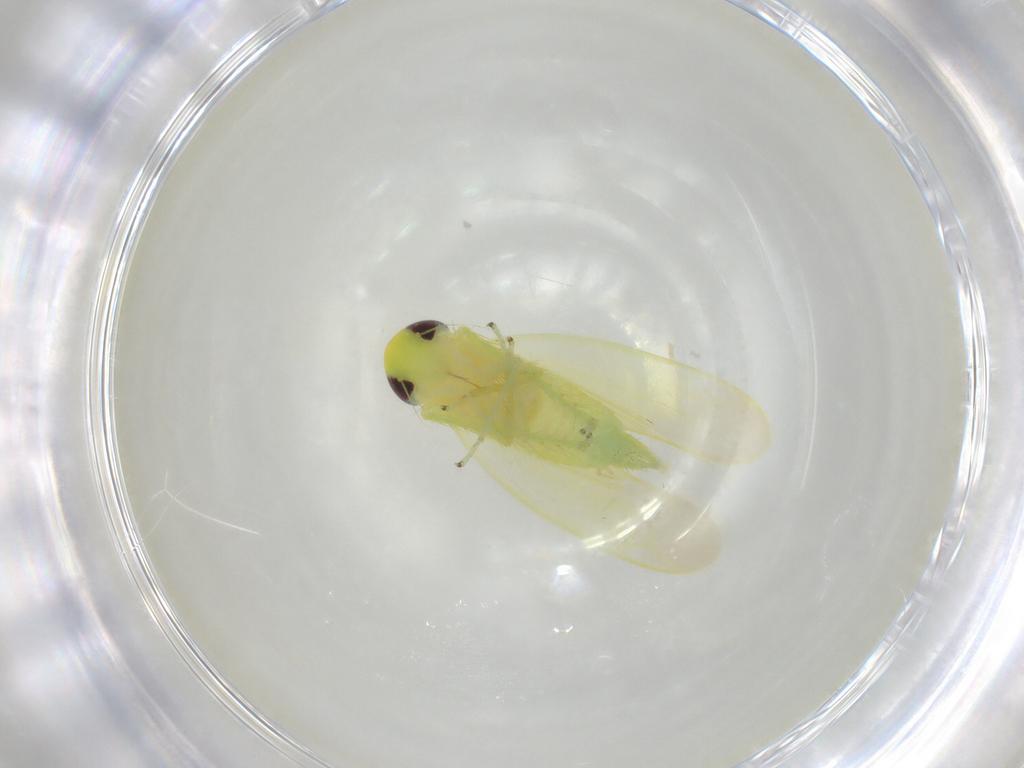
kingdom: Animalia
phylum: Arthropoda
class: Insecta
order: Hemiptera
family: Cicadellidae
